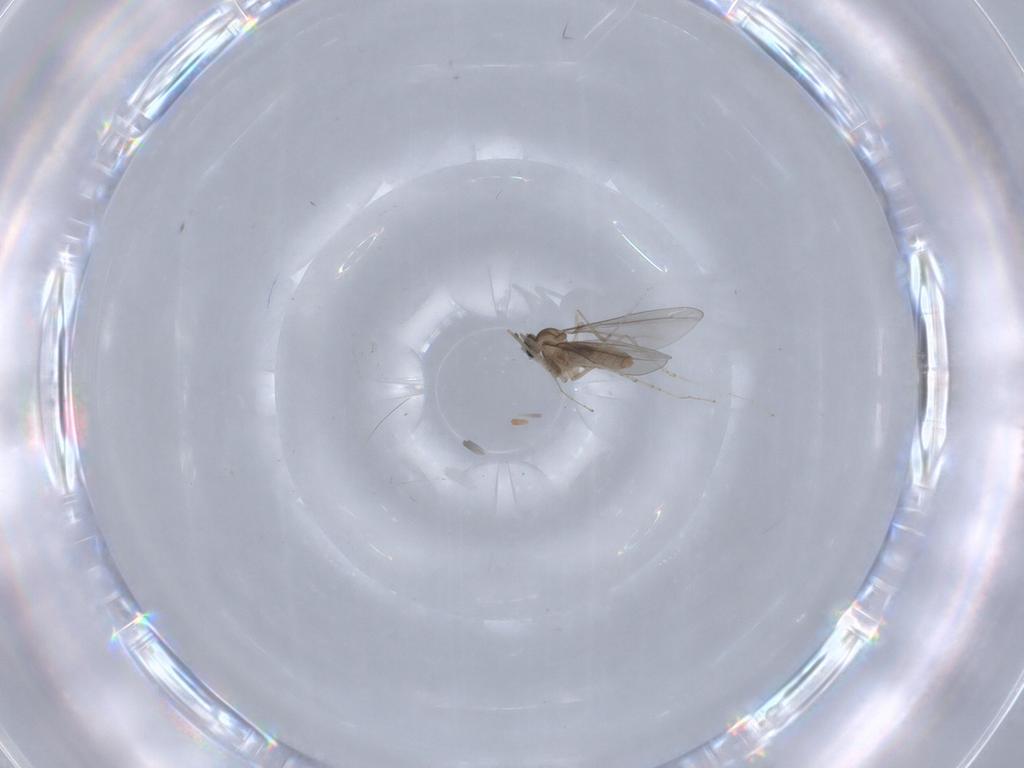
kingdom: Animalia
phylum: Arthropoda
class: Insecta
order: Diptera
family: Cecidomyiidae
